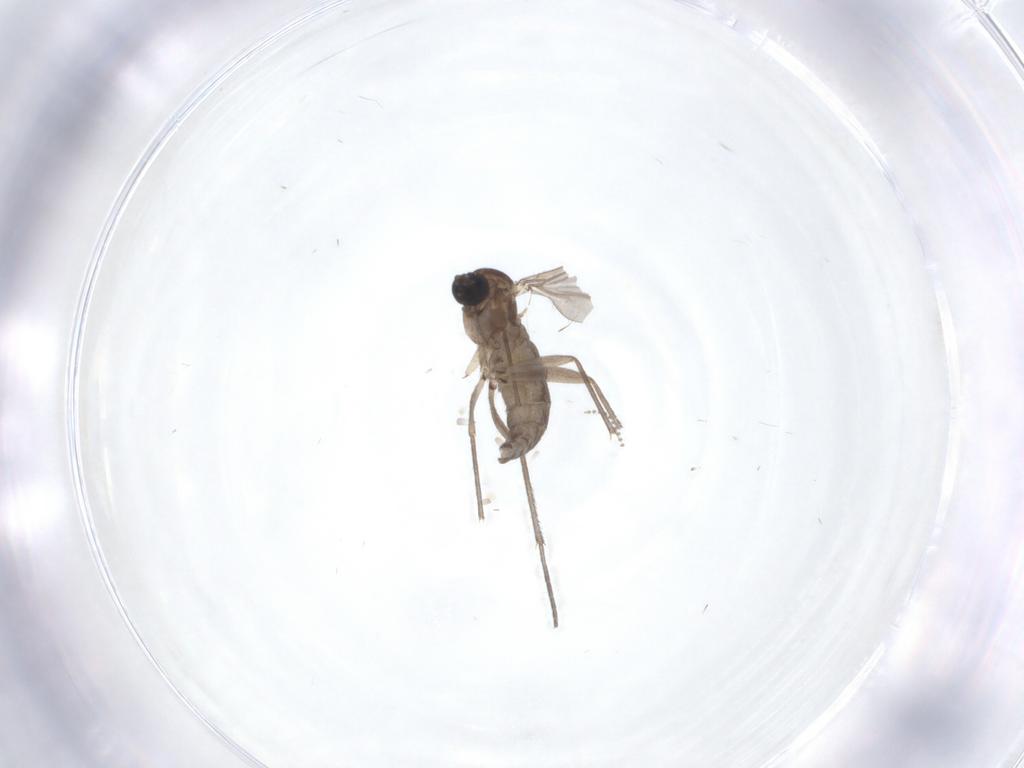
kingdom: Animalia
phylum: Arthropoda
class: Insecta
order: Diptera
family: Sciaridae
